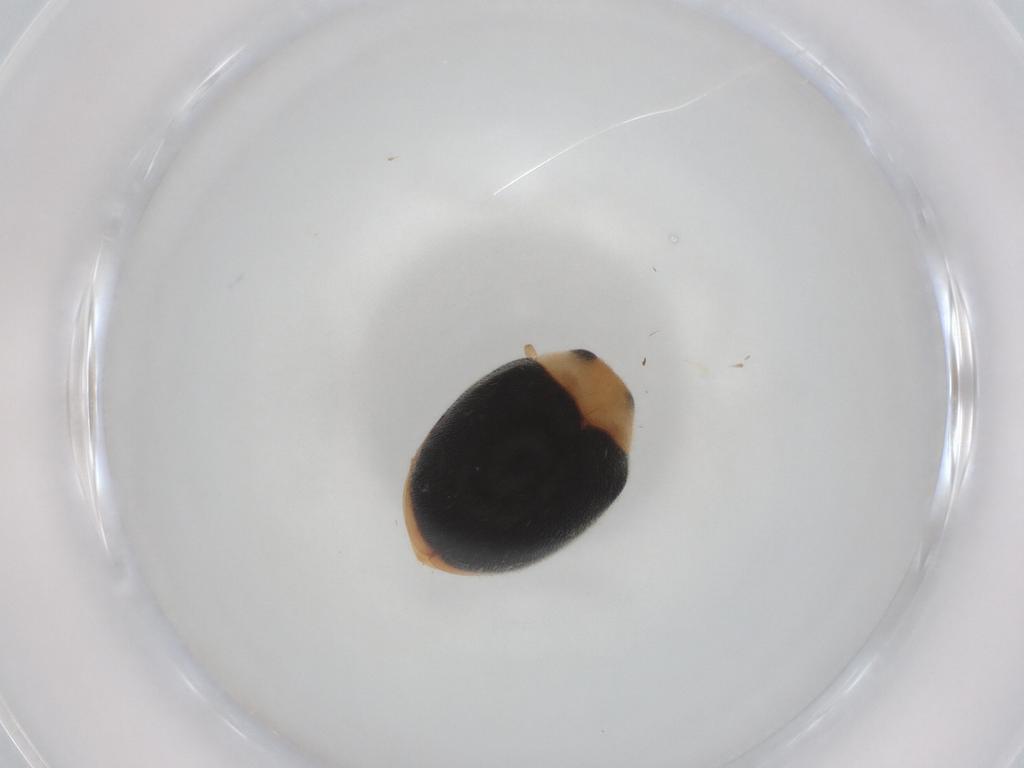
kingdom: Animalia
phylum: Arthropoda
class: Insecta
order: Coleoptera
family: Coccinellidae
